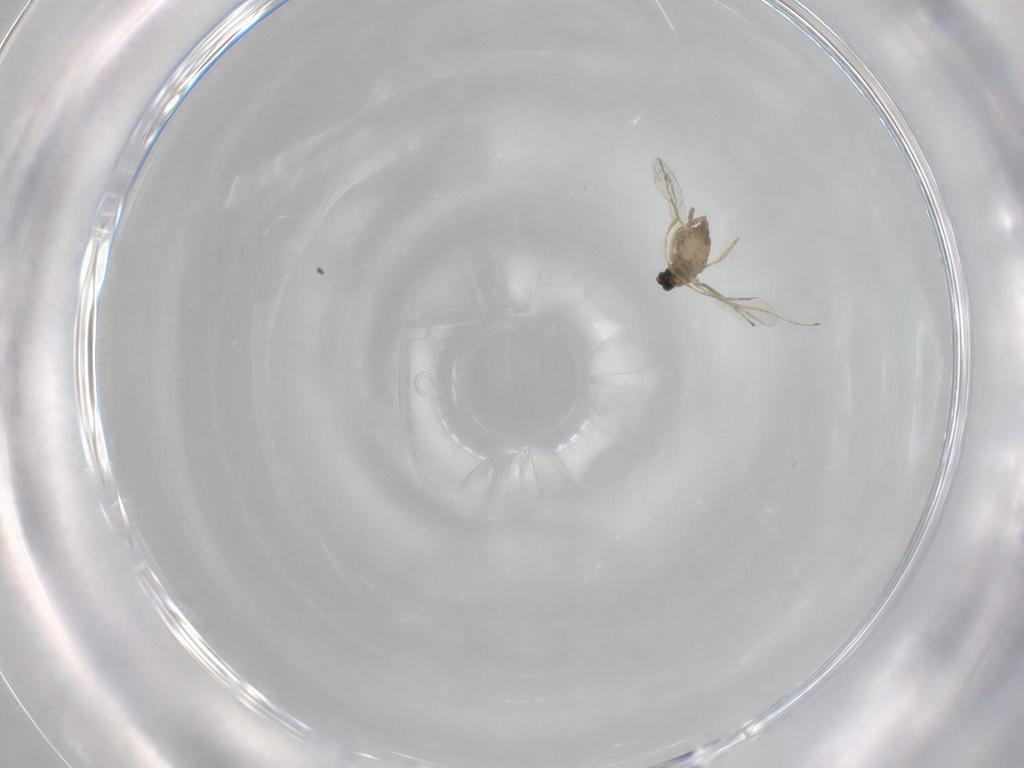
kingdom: Animalia
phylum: Arthropoda
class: Insecta
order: Diptera
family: Cecidomyiidae
